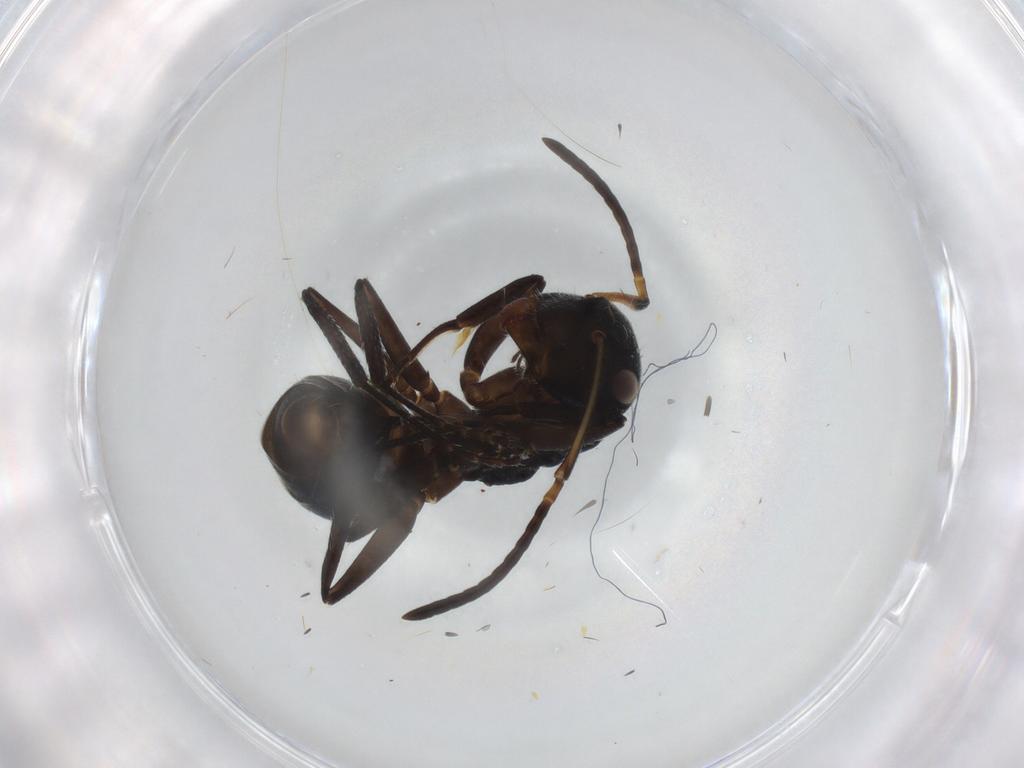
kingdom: Animalia
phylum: Arthropoda
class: Insecta
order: Hymenoptera
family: Formicidae
